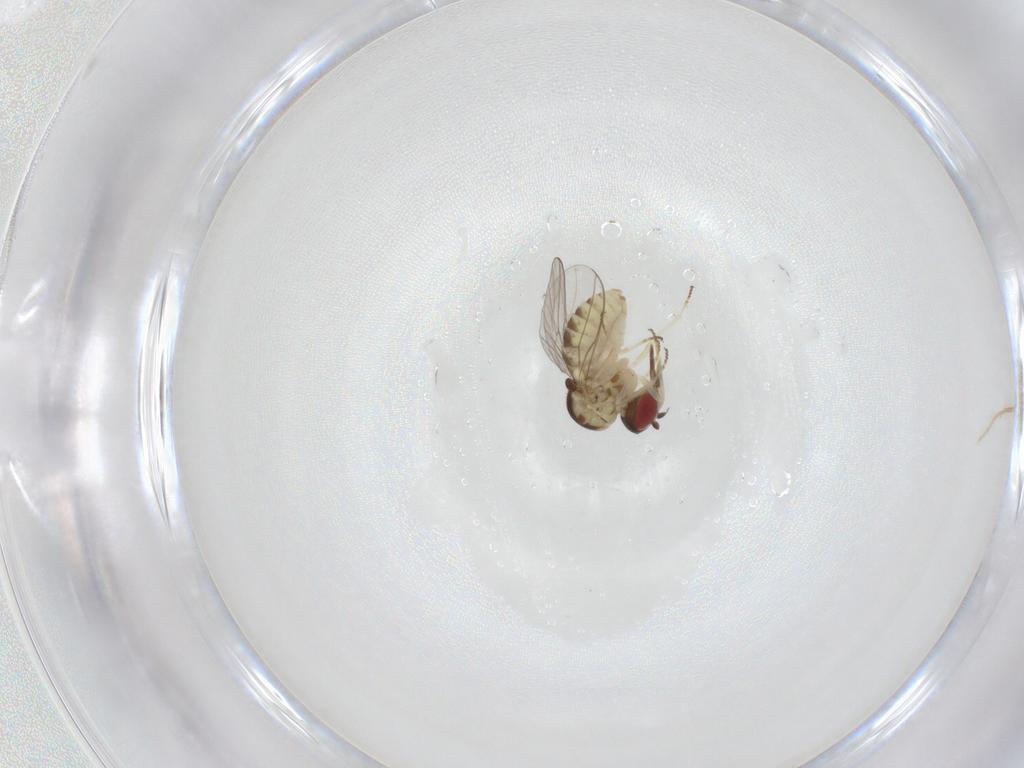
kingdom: Animalia
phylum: Arthropoda
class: Insecta
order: Diptera
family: Mythicomyiidae
